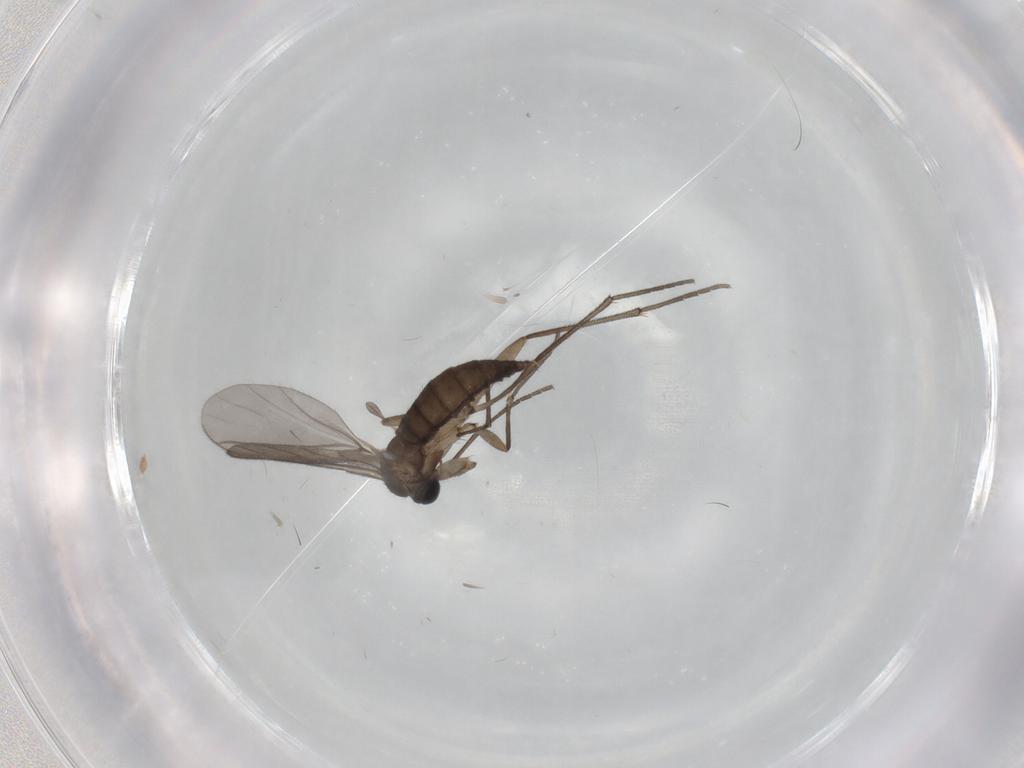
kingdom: Animalia
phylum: Arthropoda
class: Insecta
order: Diptera
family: Sciaridae
